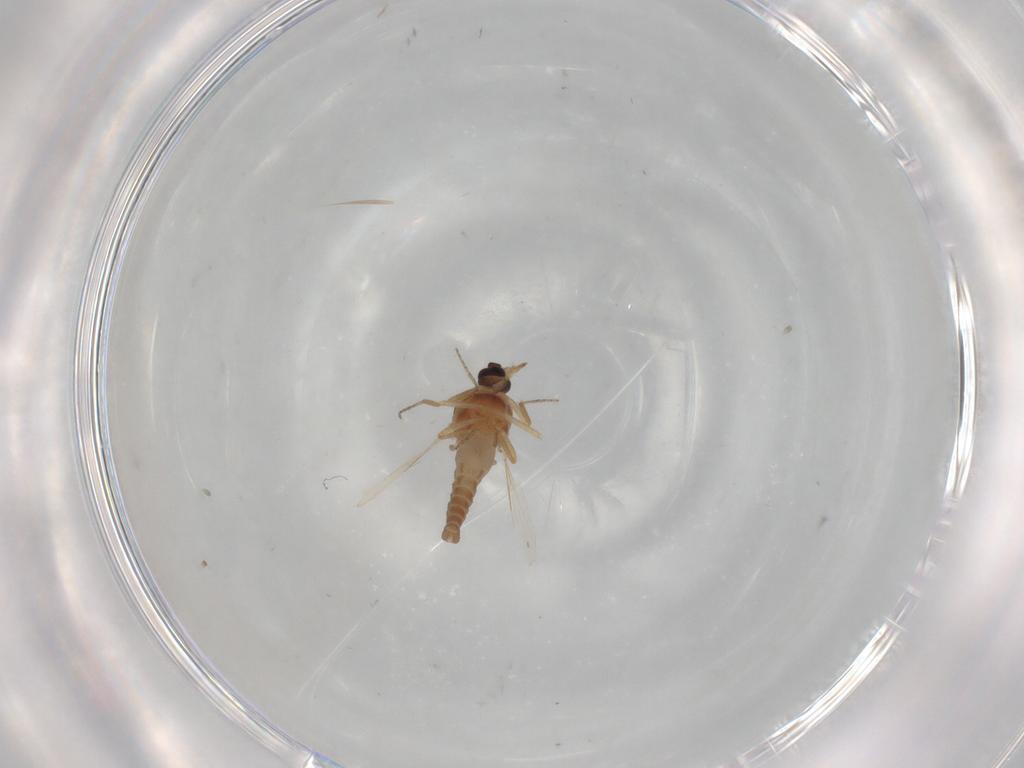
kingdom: Animalia
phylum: Arthropoda
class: Insecta
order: Diptera
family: Ceratopogonidae
